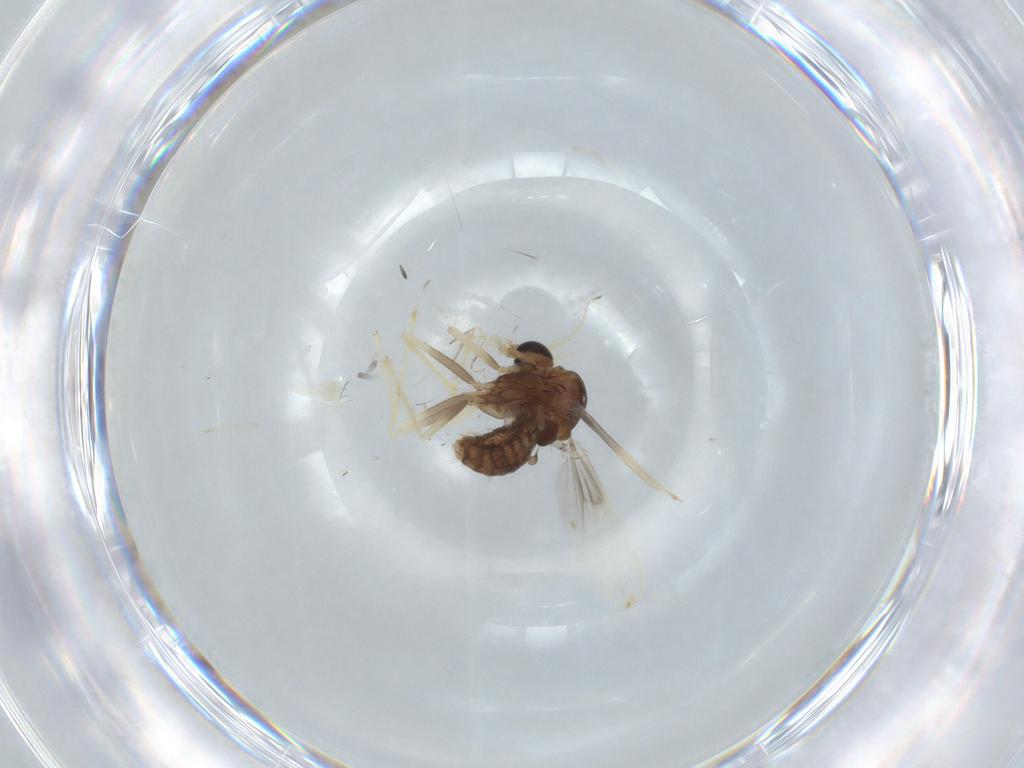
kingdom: Animalia
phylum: Arthropoda
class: Insecta
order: Diptera
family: Chironomidae
